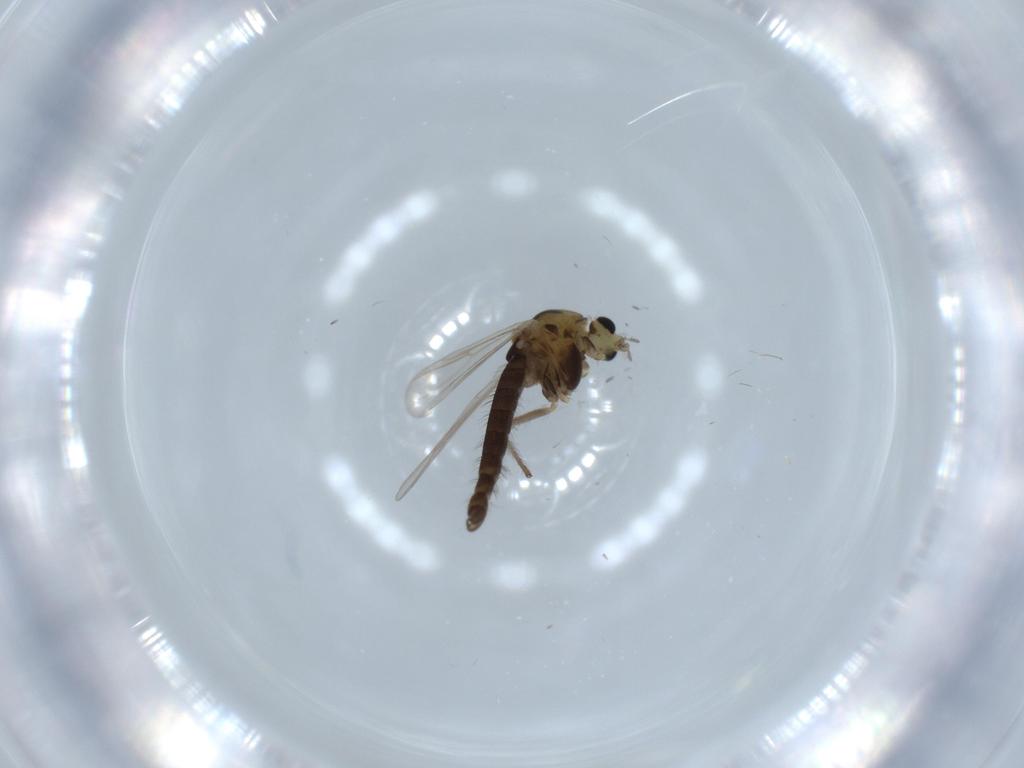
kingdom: Animalia
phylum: Arthropoda
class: Insecta
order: Diptera
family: Chironomidae
